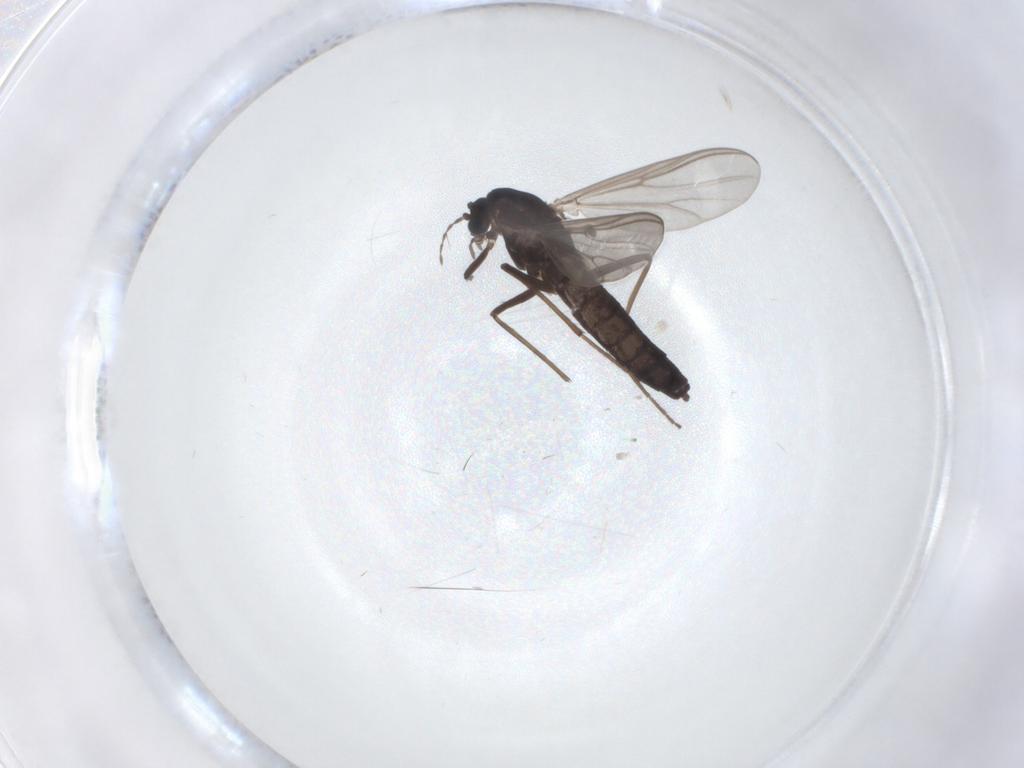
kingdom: Animalia
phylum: Arthropoda
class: Insecta
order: Diptera
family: Chironomidae
